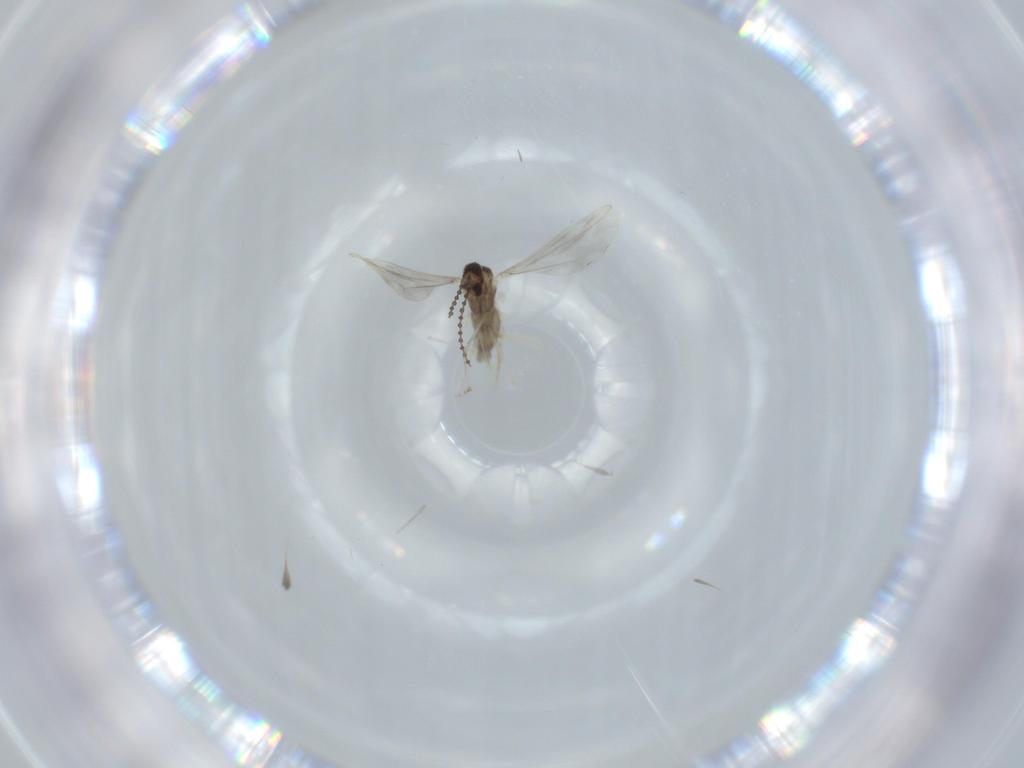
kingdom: Animalia
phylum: Arthropoda
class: Insecta
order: Diptera
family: Cecidomyiidae
